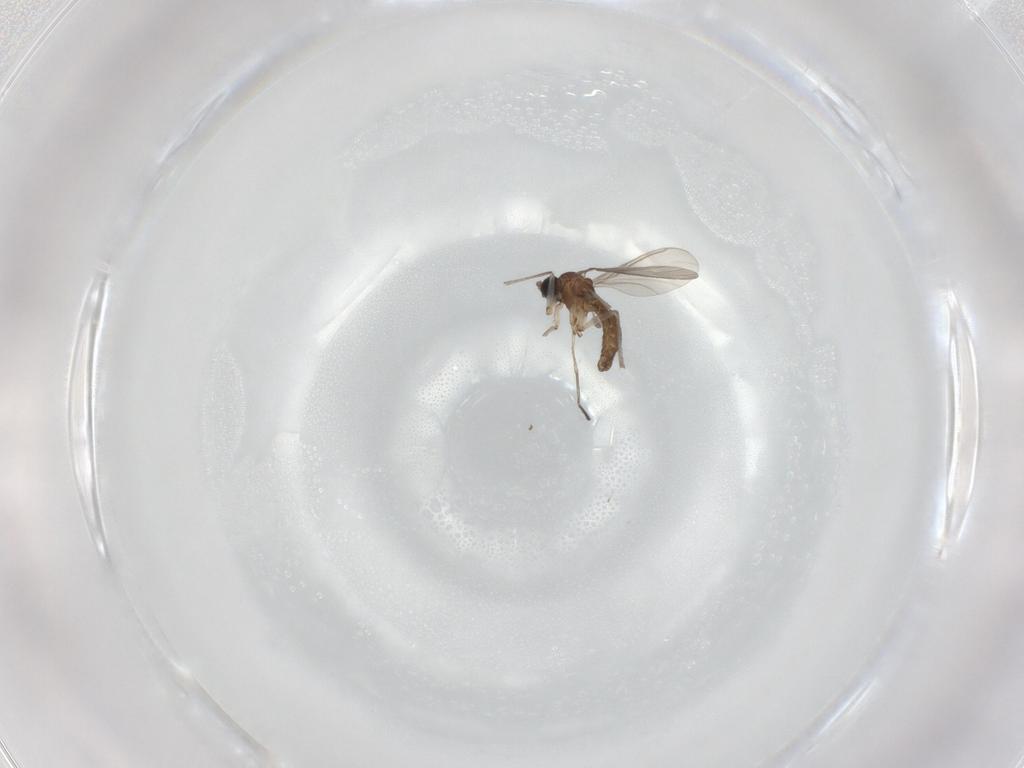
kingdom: Animalia
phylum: Arthropoda
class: Insecta
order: Diptera
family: Sciaridae
